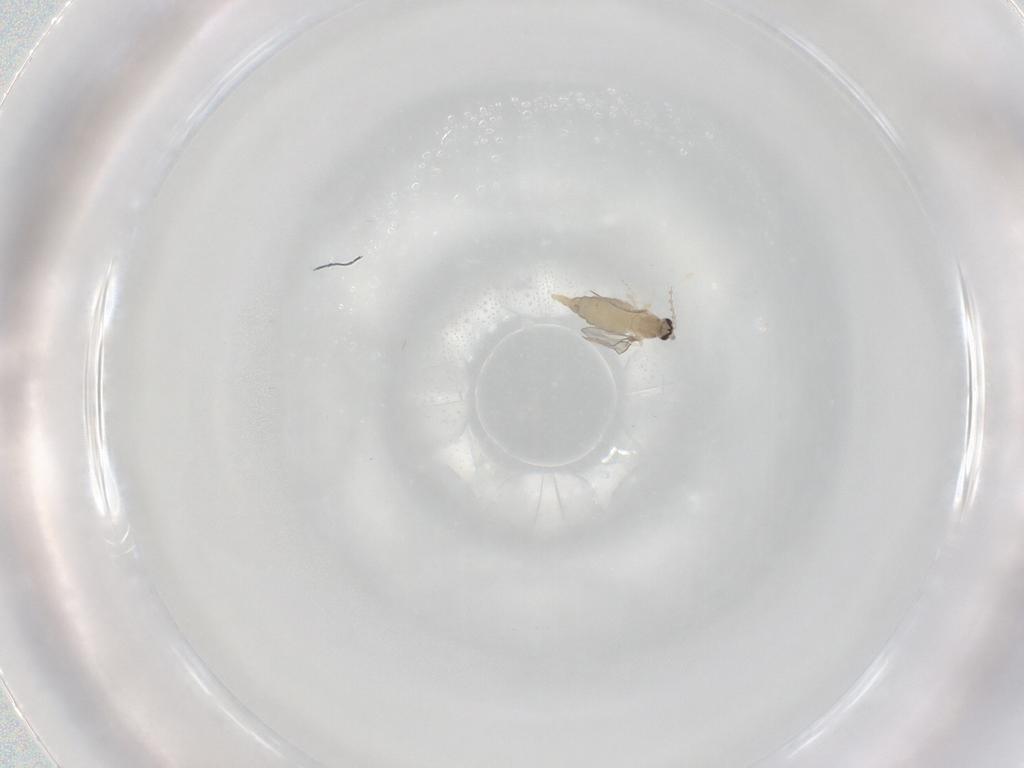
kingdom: Animalia
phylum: Arthropoda
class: Insecta
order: Diptera
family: Cecidomyiidae
